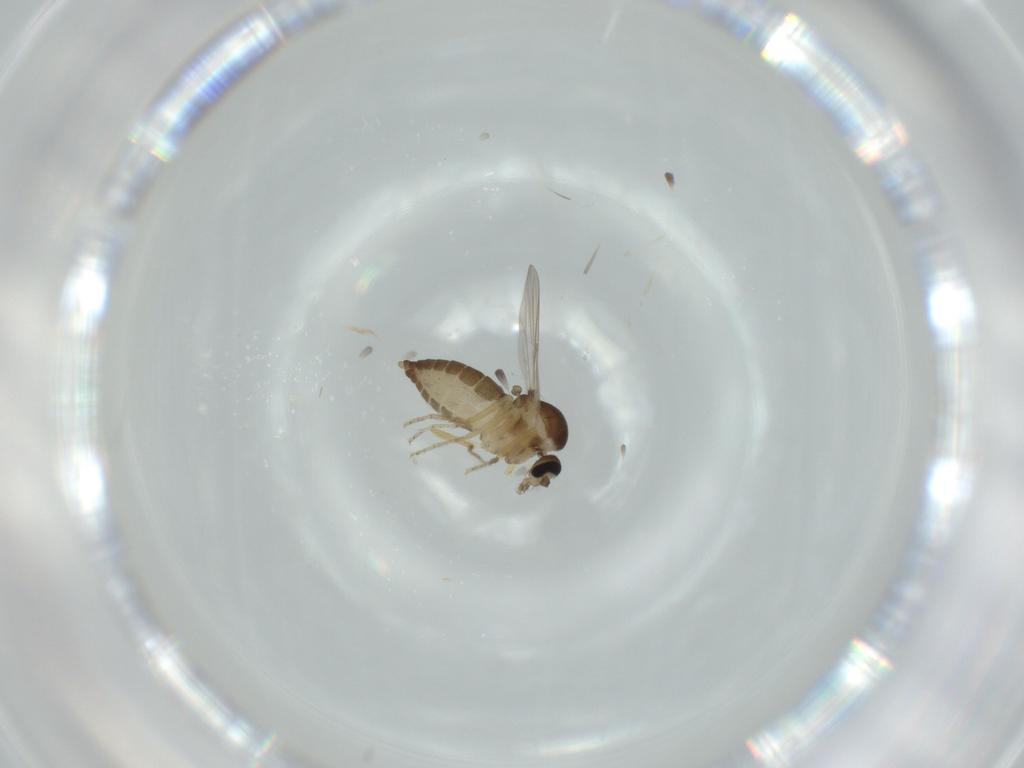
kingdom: Animalia
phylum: Arthropoda
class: Insecta
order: Diptera
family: Ceratopogonidae
